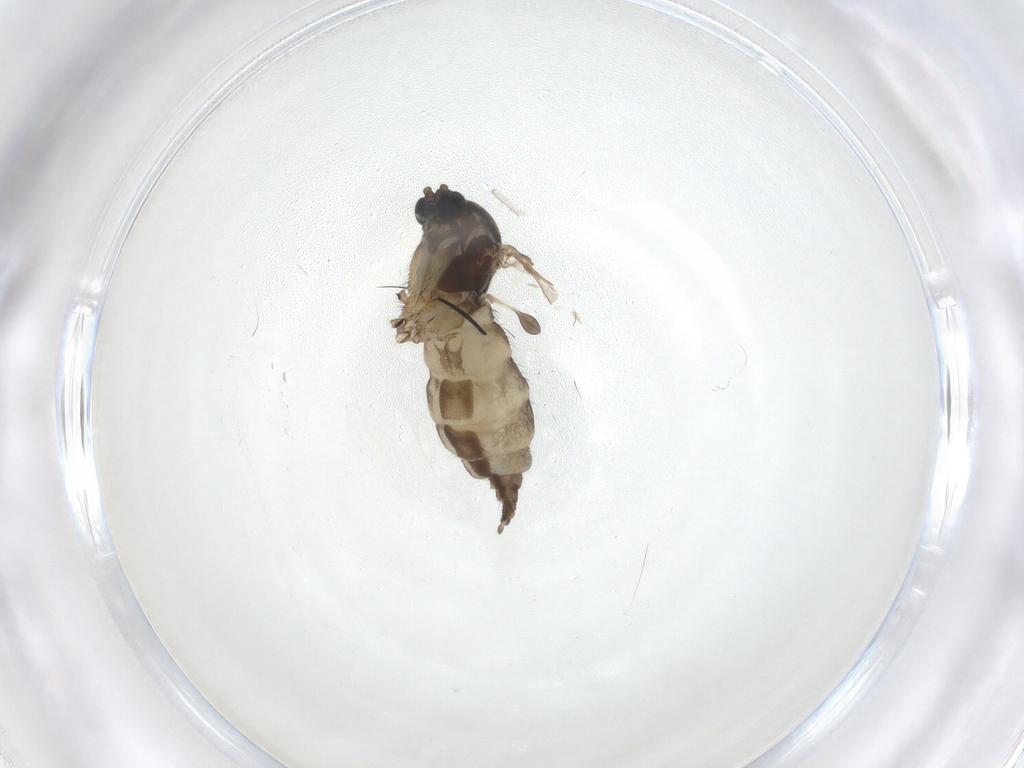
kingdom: Animalia
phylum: Arthropoda
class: Insecta
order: Diptera
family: Sciaridae
